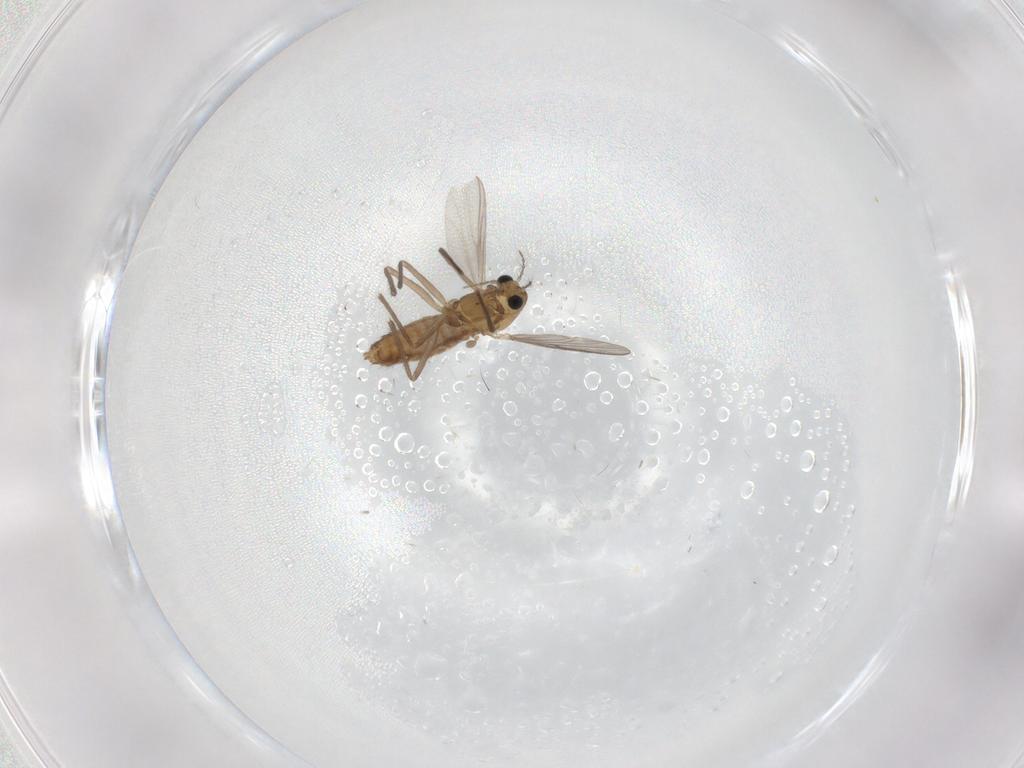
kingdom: Animalia
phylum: Arthropoda
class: Insecta
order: Diptera
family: Chironomidae
